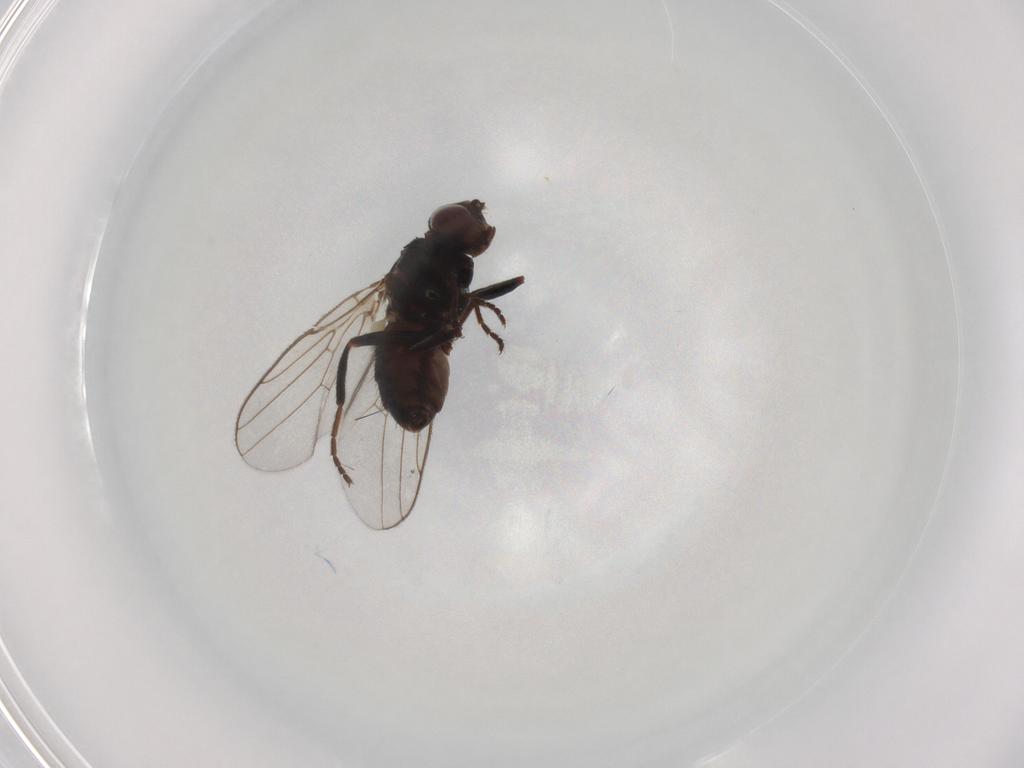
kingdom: Animalia
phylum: Arthropoda
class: Insecta
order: Diptera
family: Chloropidae
